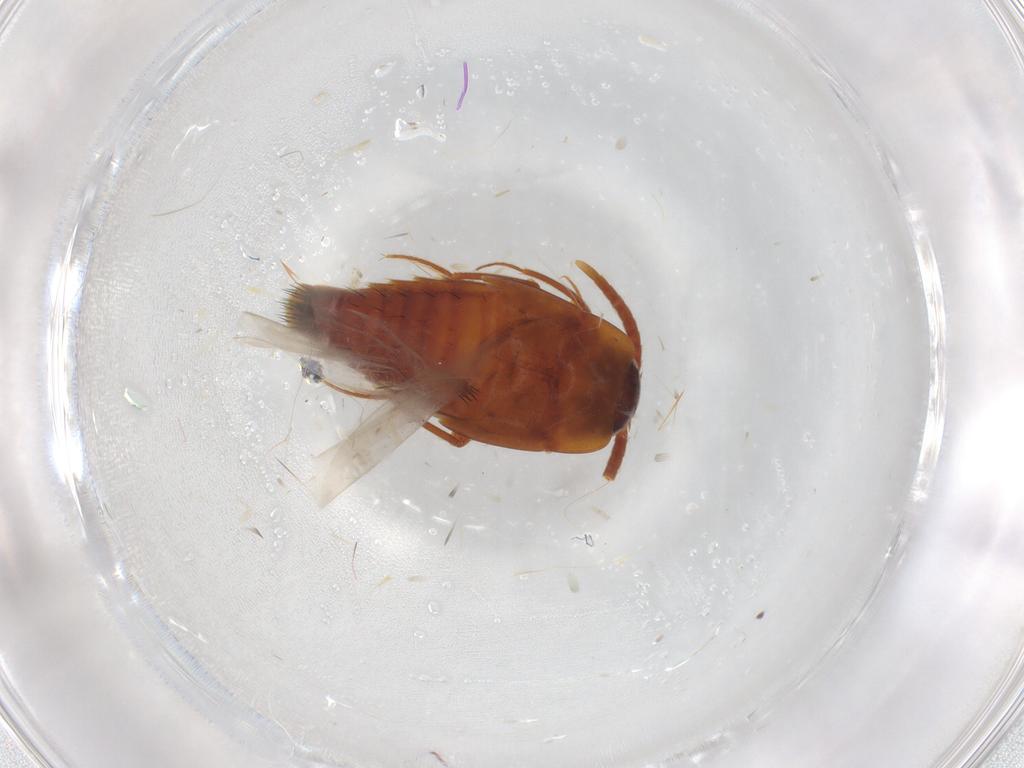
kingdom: Animalia
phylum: Arthropoda
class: Insecta
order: Coleoptera
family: Staphylinidae
